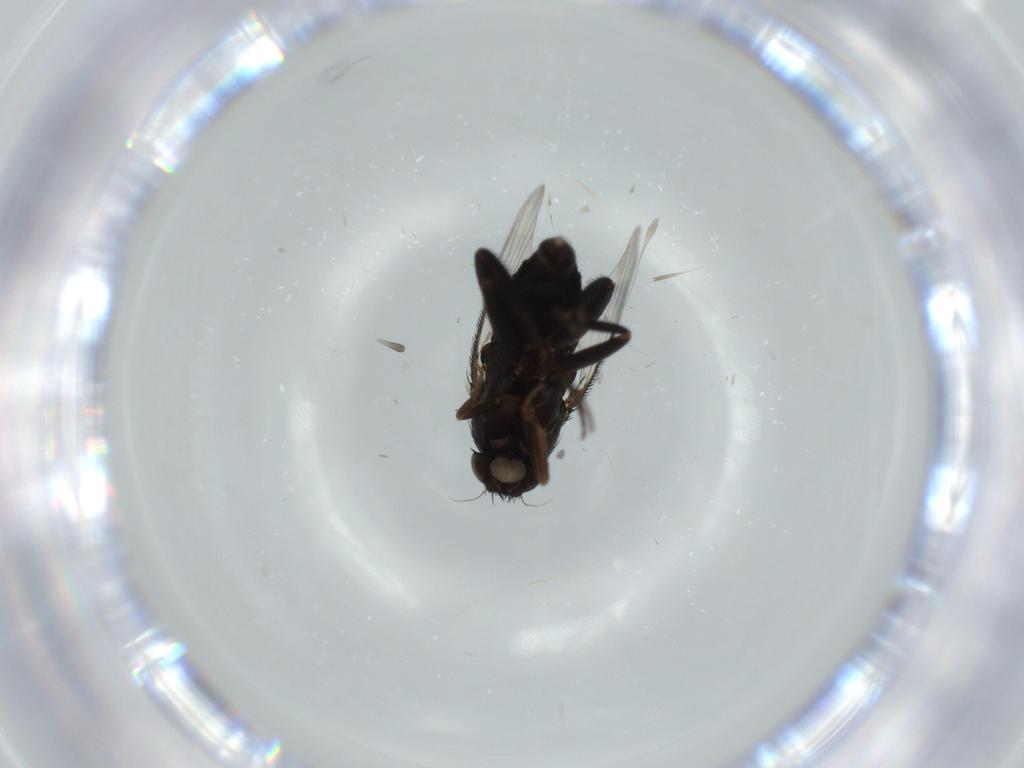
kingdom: Animalia
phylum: Arthropoda
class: Insecta
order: Diptera
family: Phoridae
